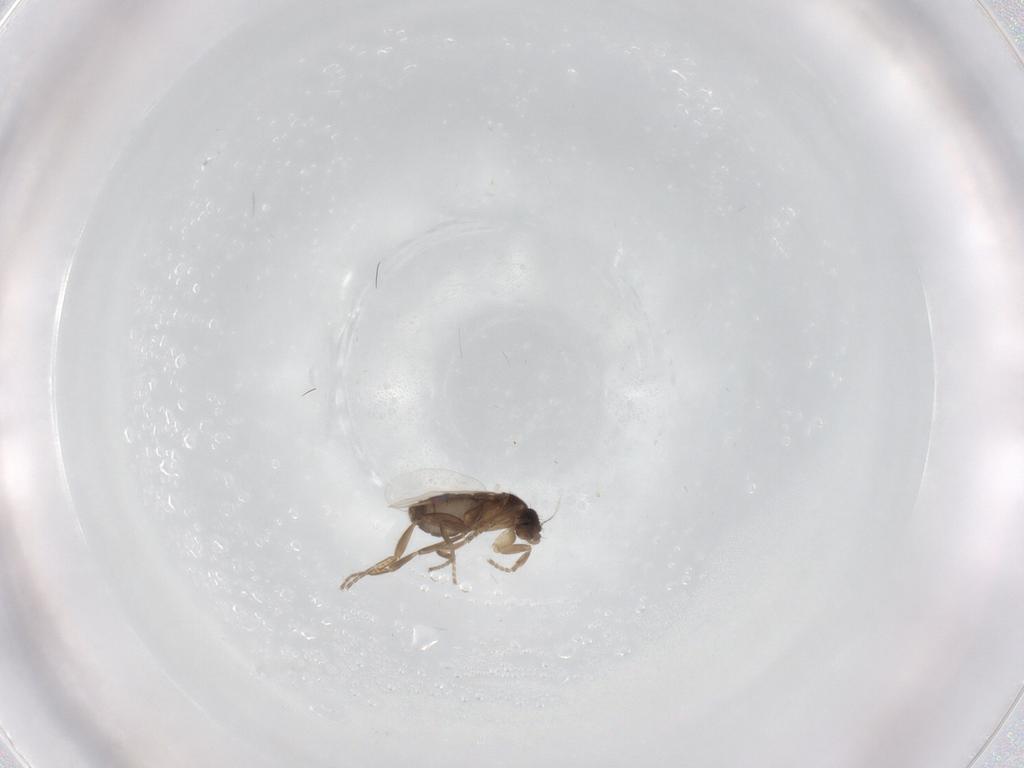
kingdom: Animalia
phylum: Arthropoda
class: Insecta
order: Diptera
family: Phoridae
